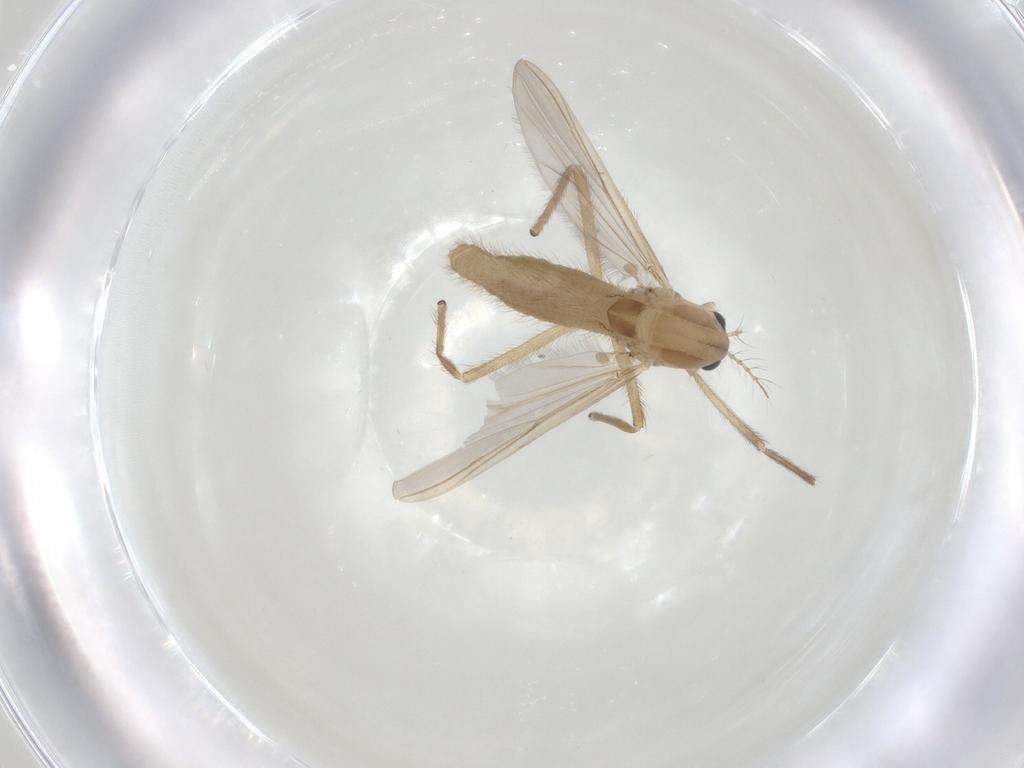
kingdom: Animalia
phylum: Arthropoda
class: Insecta
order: Diptera
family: Chironomidae
